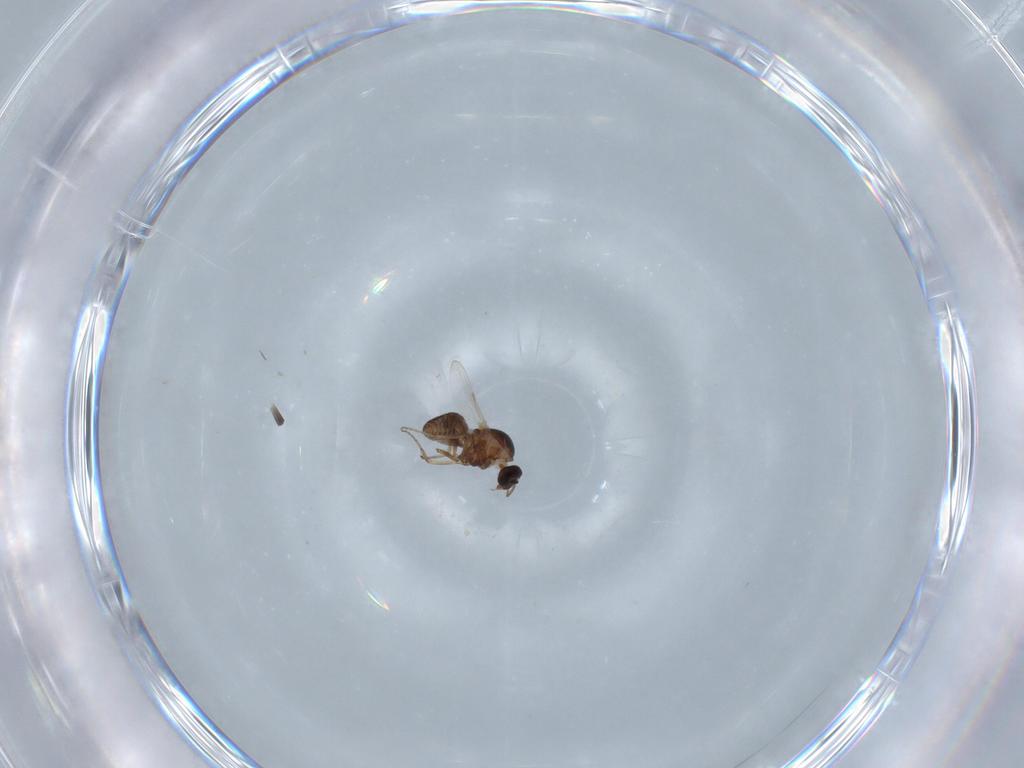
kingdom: Animalia
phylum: Arthropoda
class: Insecta
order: Diptera
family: Ceratopogonidae
